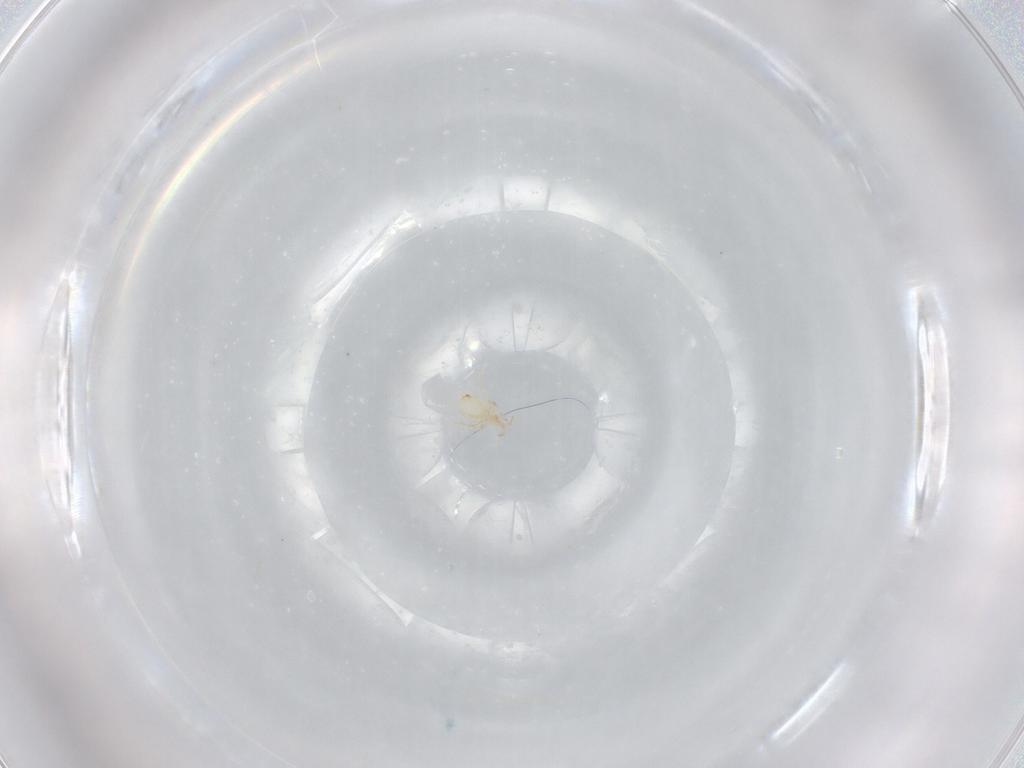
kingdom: Animalia
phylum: Arthropoda
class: Arachnida
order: Mesostigmata
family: Phytoseiidae
